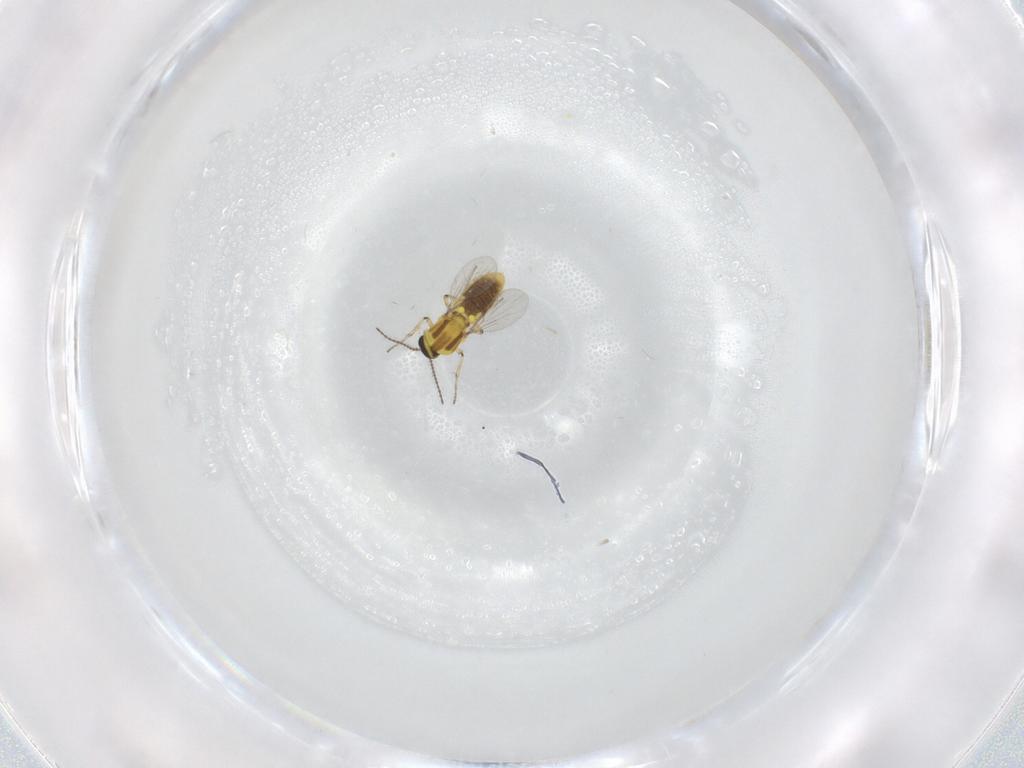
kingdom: Animalia
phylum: Arthropoda
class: Insecta
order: Diptera
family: Ceratopogonidae
